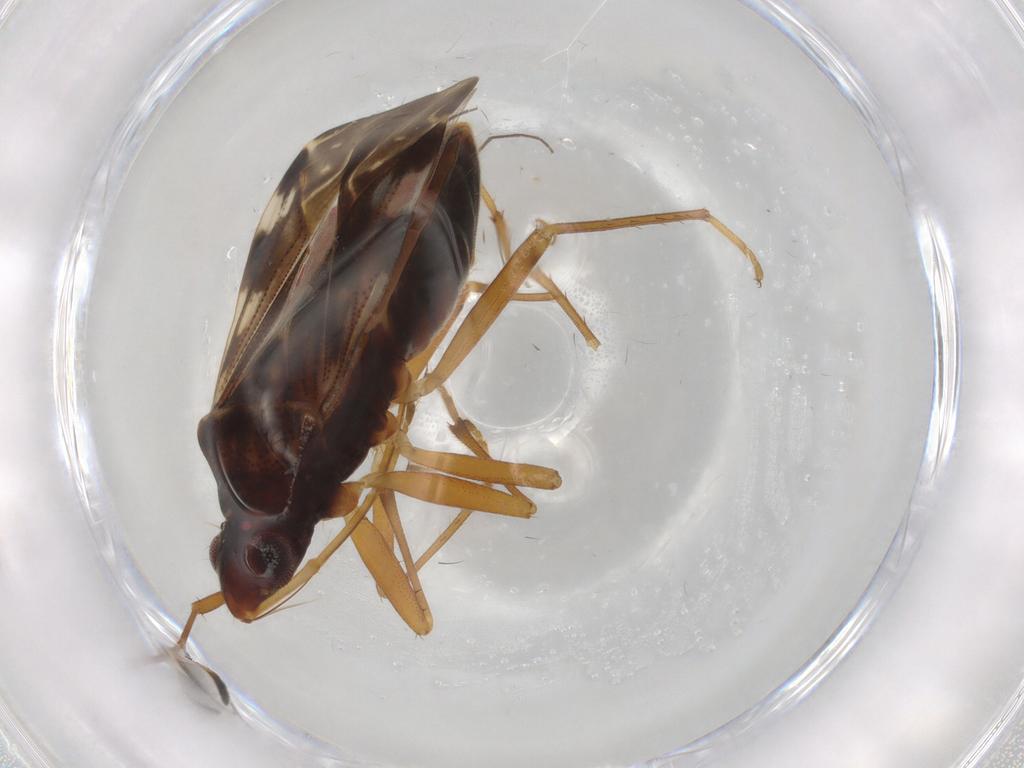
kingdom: Animalia
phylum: Arthropoda
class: Insecta
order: Hemiptera
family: Rhyparochromidae
